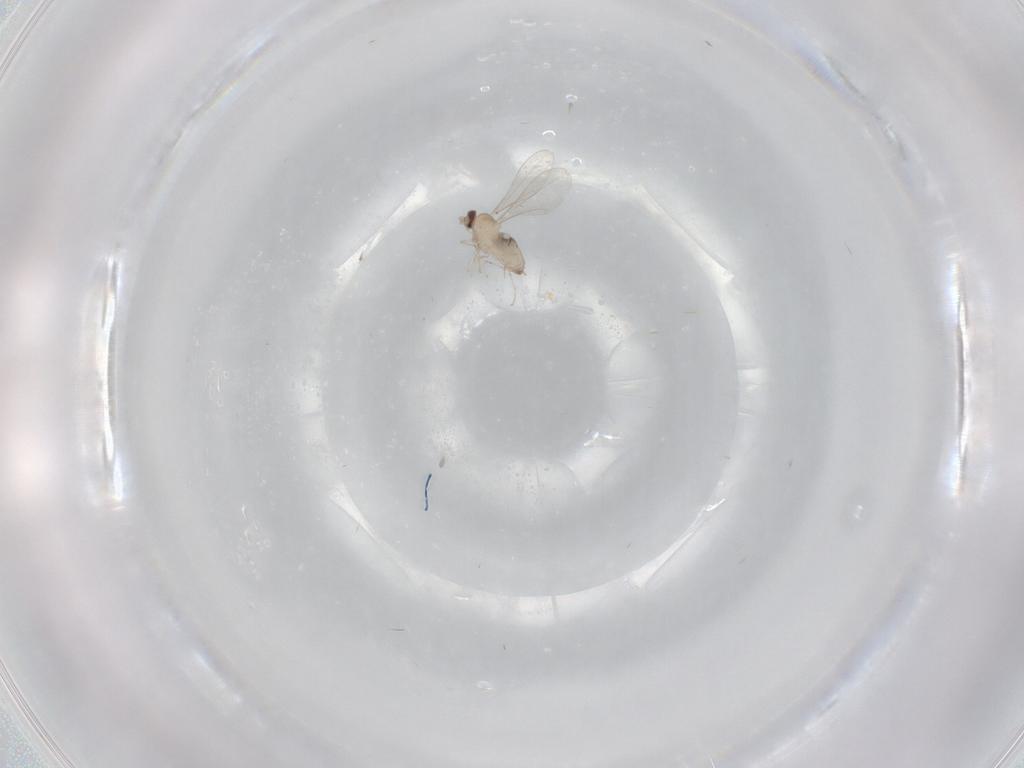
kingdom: Animalia
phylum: Arthropoda
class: Insecta
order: Diptera
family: Cecidomyiidae
